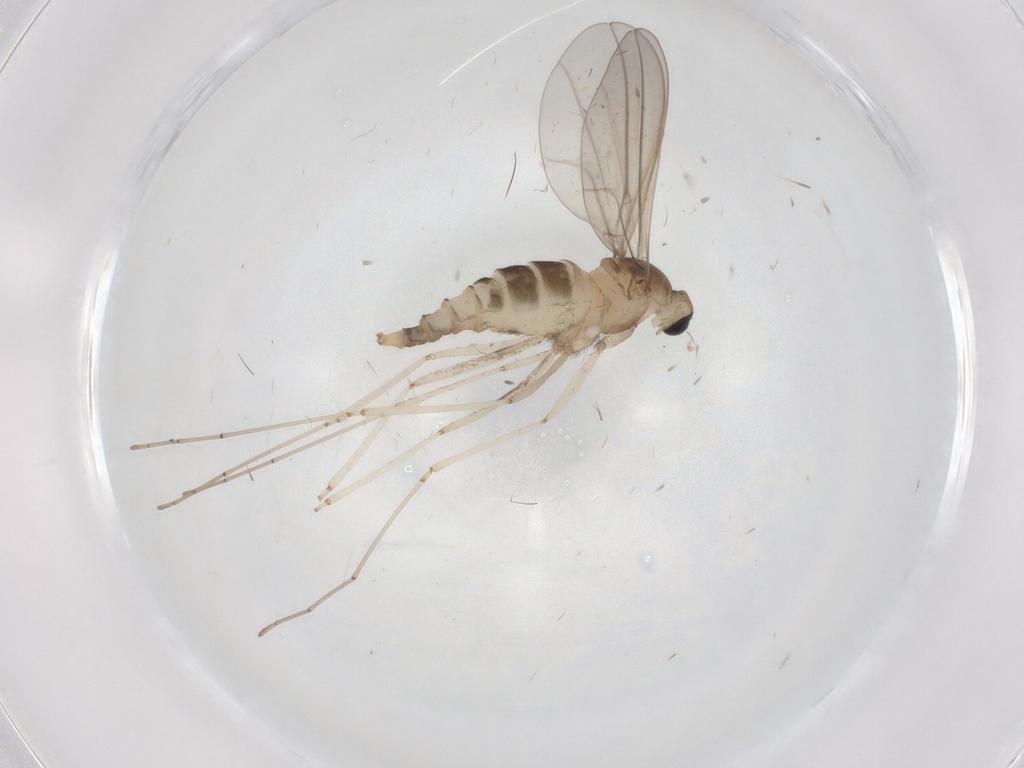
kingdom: Animalia
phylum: Arthropoda
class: Insecta
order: Diptera
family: Cecidomyiidae
